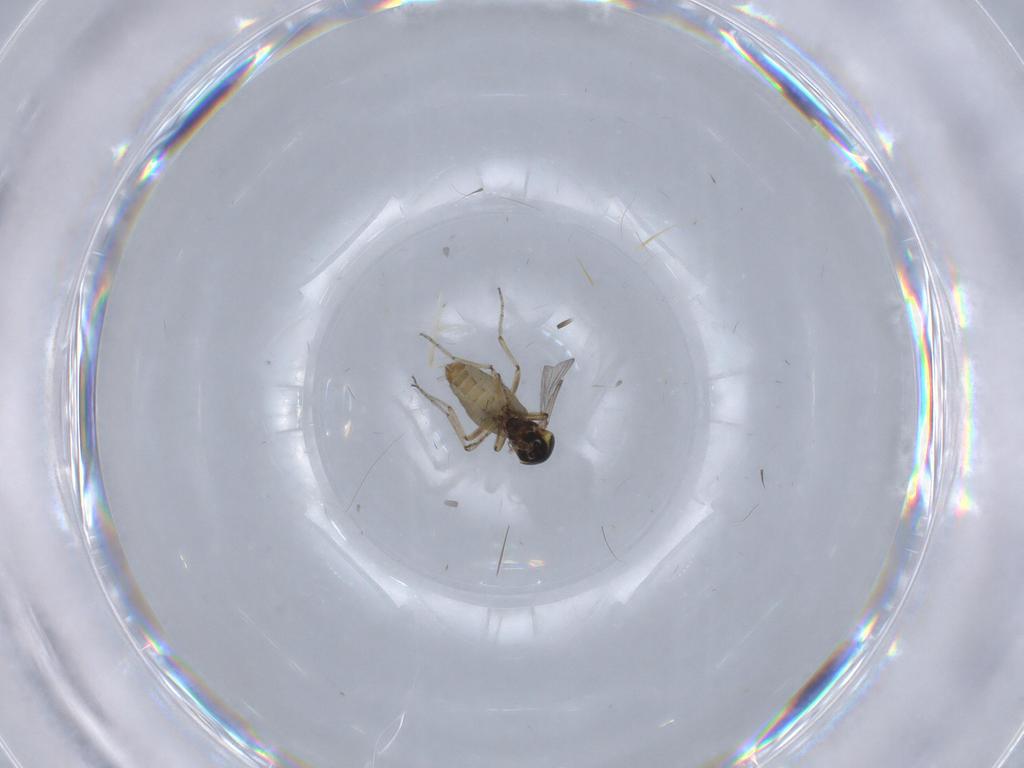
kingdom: Animalia
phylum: Arthropoda
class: Insecta
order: Diptera
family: Ceratopogonidae
